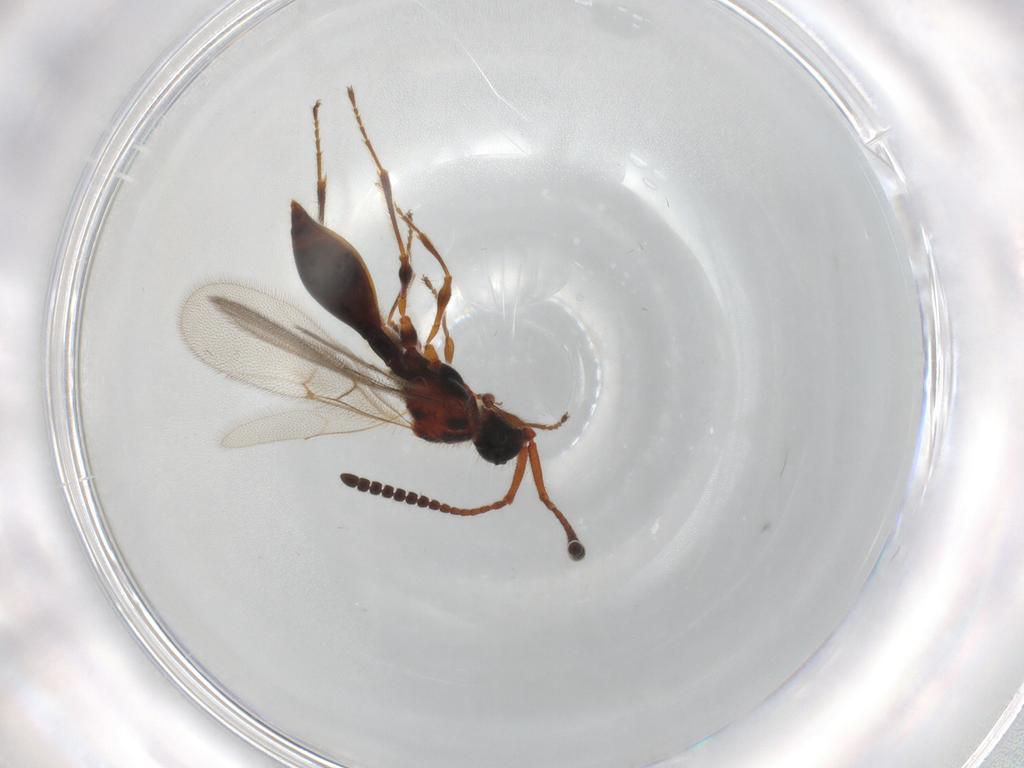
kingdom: Animalia
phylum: Arthropoda
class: Insecta
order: Hymenoptera
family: Diapriidae
